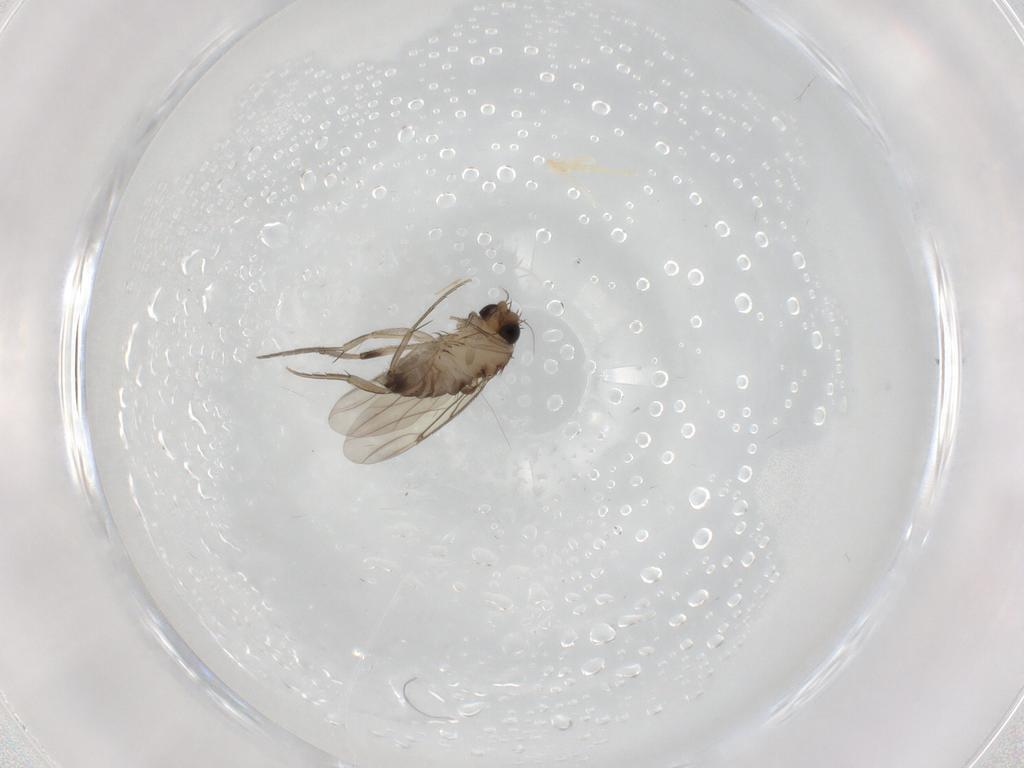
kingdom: Animalia
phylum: Arthropoda
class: Insecta
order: Diptera
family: Phoridae
